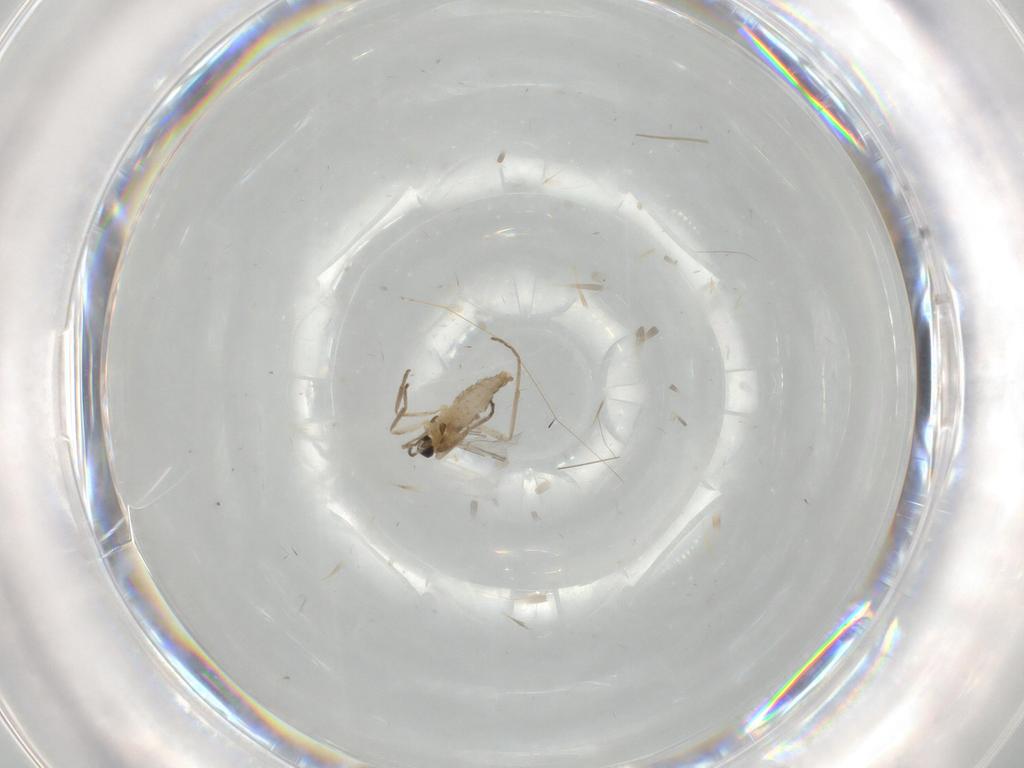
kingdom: Animalia
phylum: Arthropoda
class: Insecta
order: Diptera
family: Cecidomyiidae
